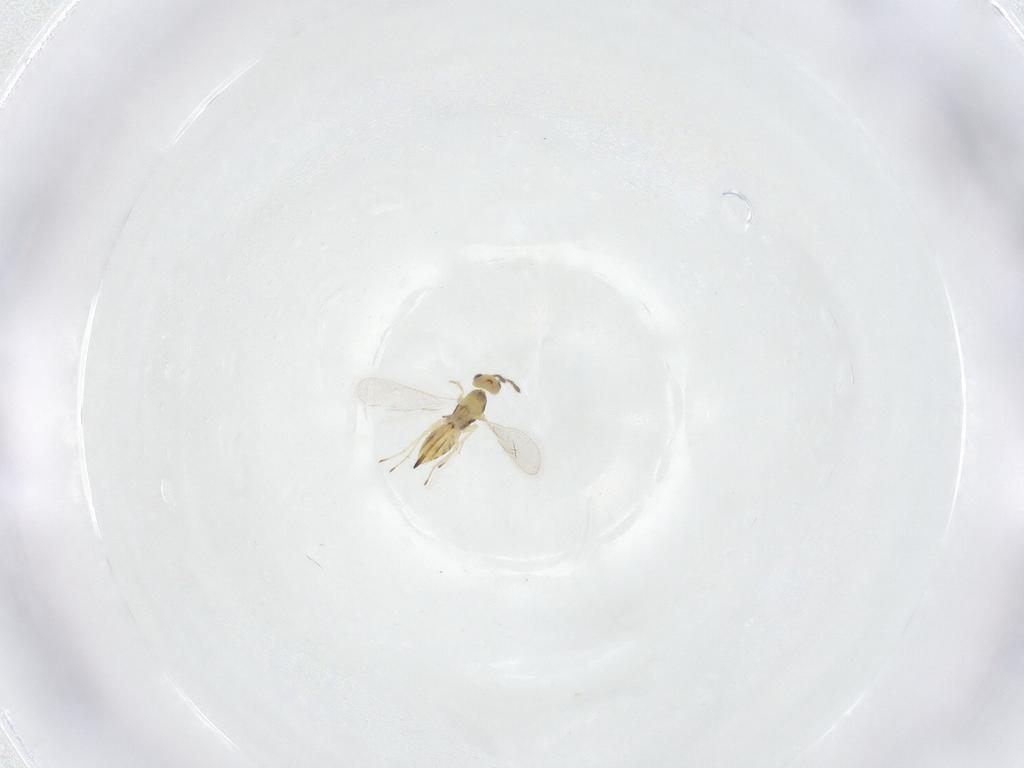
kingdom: Animalia
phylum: Arthropoda
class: Insecta
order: Hymenoptera
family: Eulophidae
